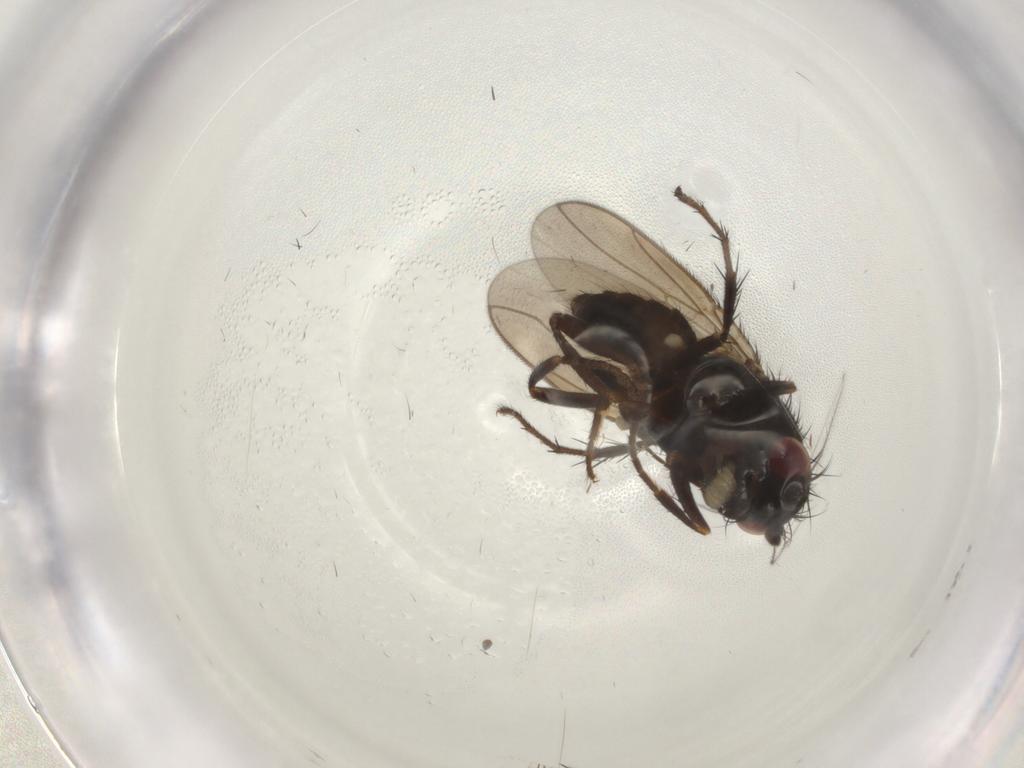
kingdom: Animalia
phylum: Arthropoda
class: Insecta
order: Diptera
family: Sphaeroceridae
